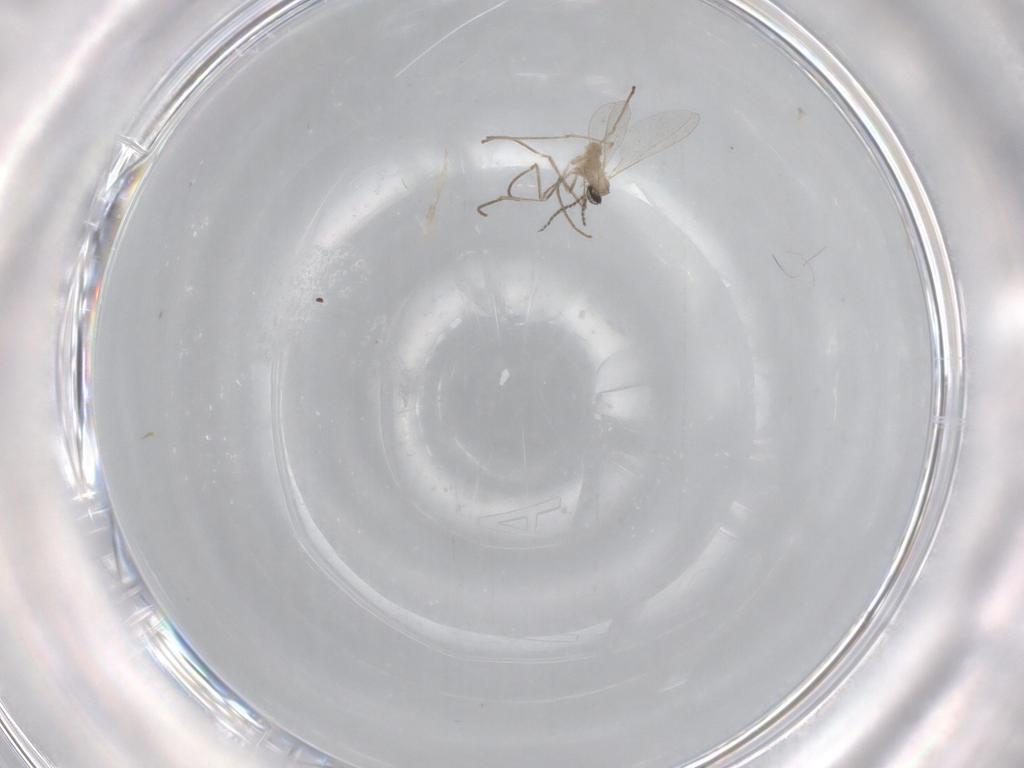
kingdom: Animalia
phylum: Arthropoda
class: Insecta
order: Diptera
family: Cecidomyiidae
